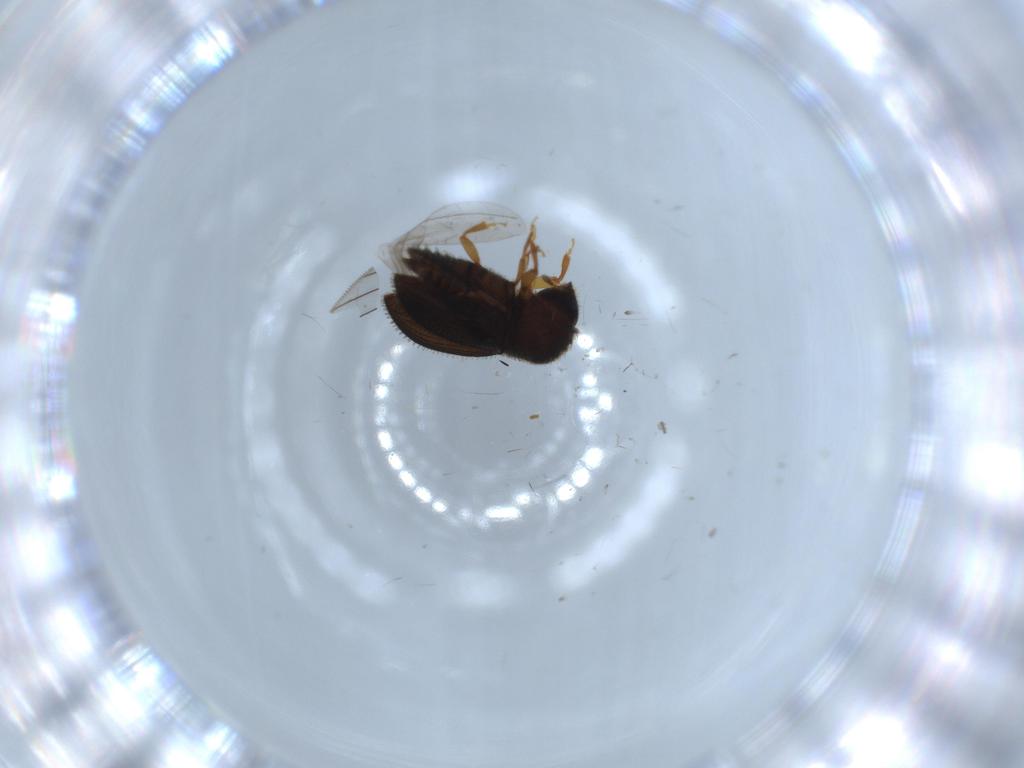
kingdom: Animalia
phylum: Arthropoda
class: Insecta
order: Coleoptera
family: Curculionidae
